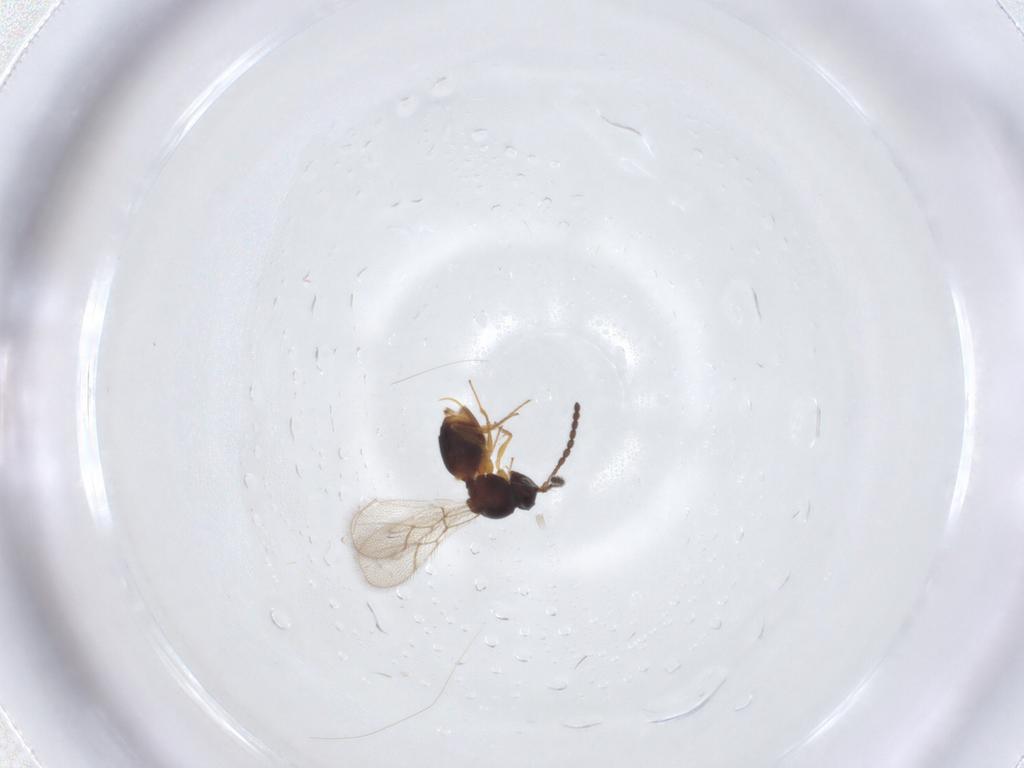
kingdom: Animalia
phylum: Arthropoda
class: Insecta
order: Hymenoptera
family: Figitidae
